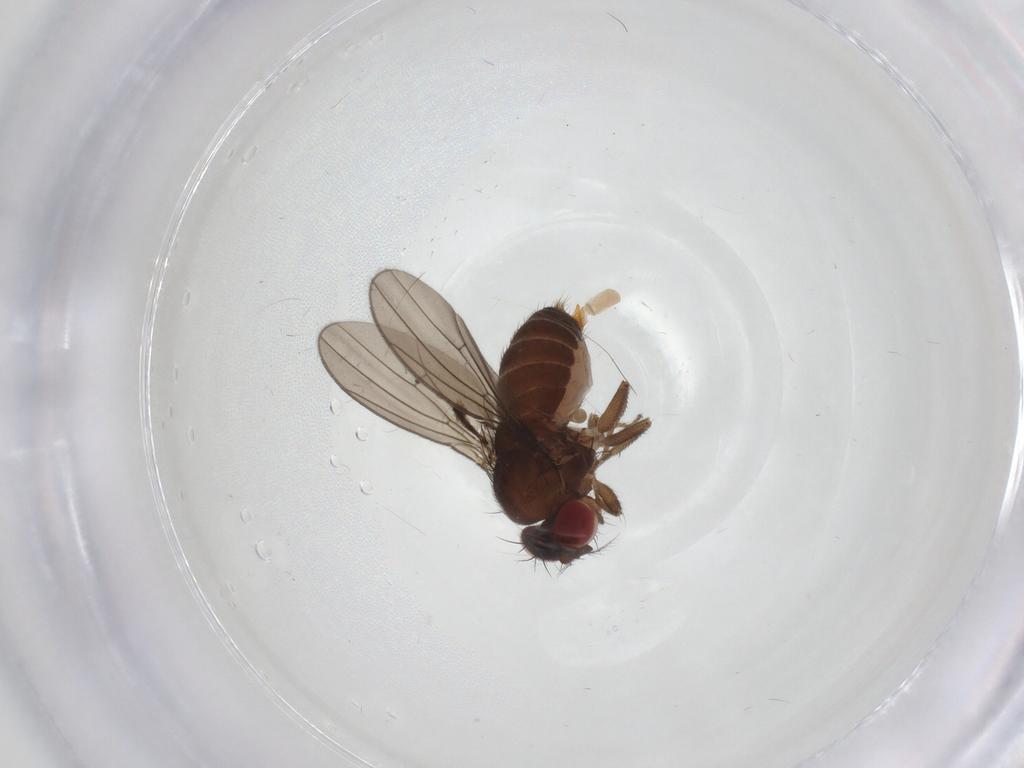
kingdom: Animalia
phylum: Arthropoda
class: Insecta
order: Diptera
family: Drosophilidae
